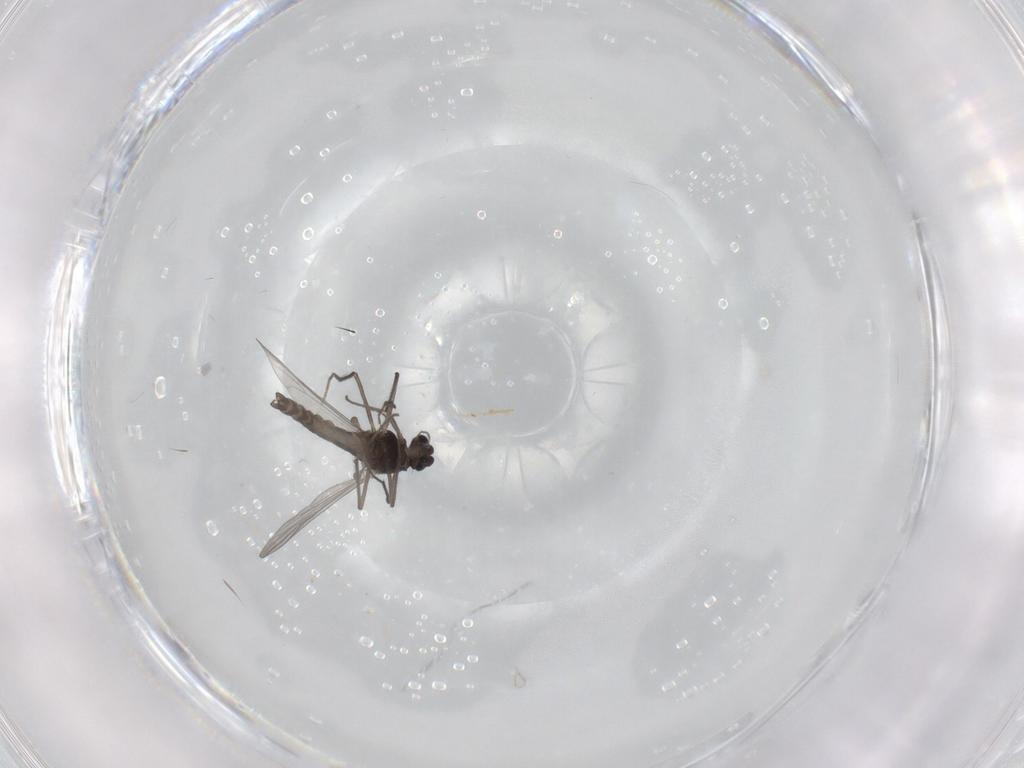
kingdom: Animalia
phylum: Arthropoda
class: Insecta
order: Diptera
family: Chironomidae
